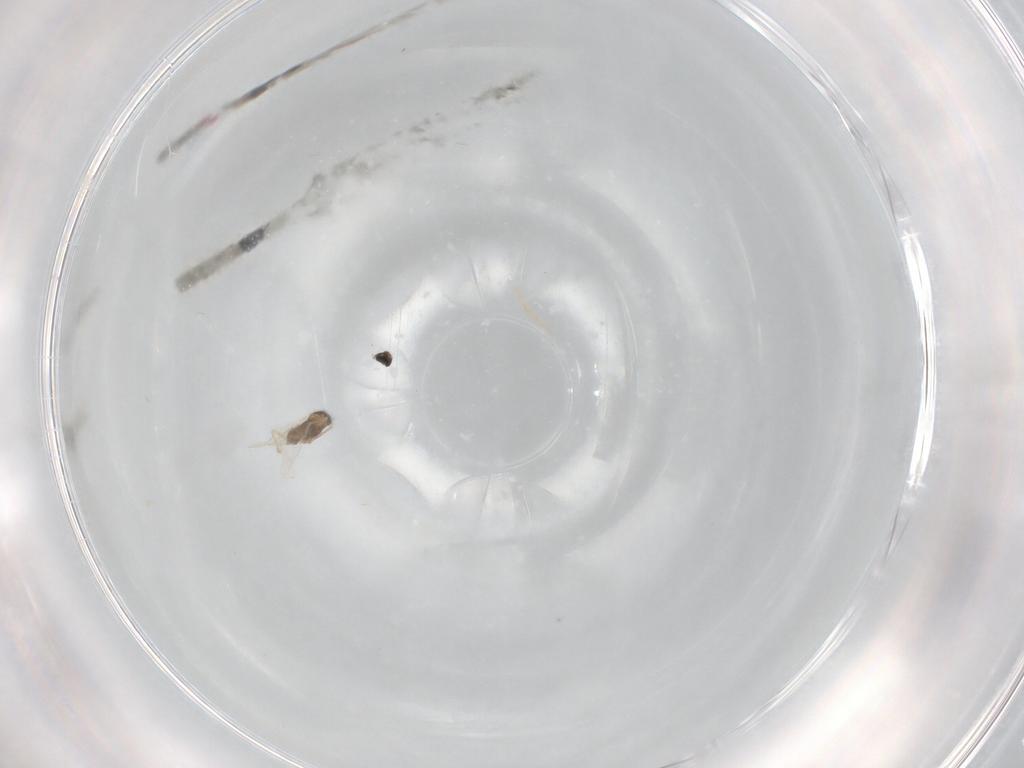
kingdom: Animalia
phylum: Arthropoda
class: Insecta
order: Diptera
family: Cecidomyiidae
